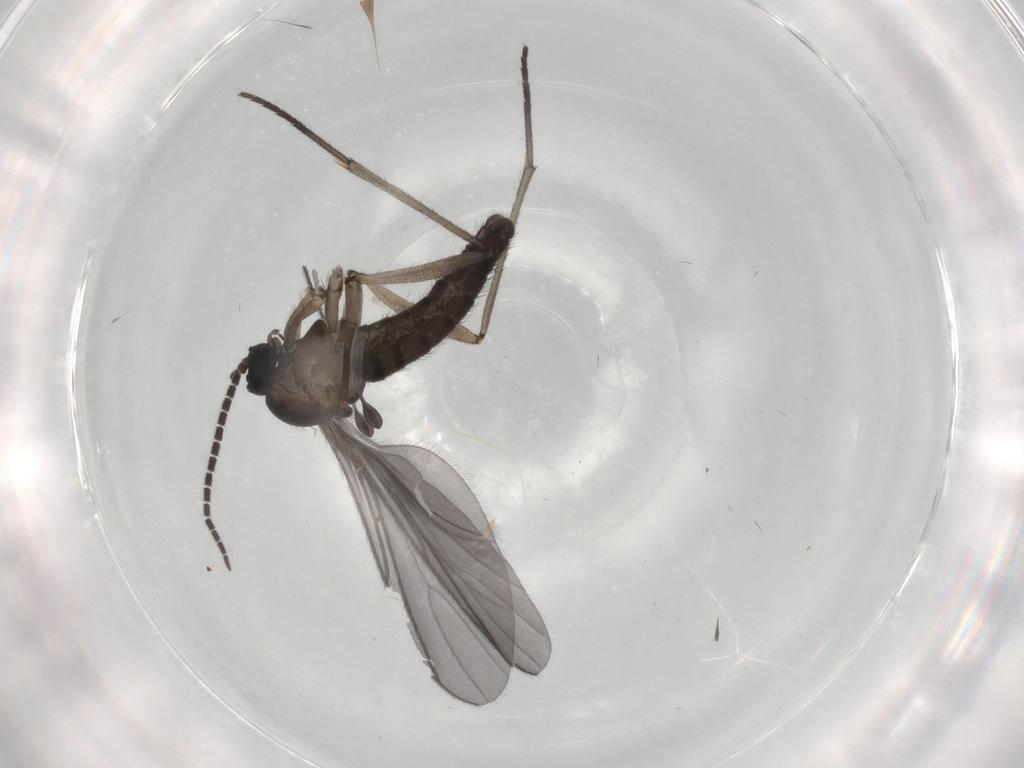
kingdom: Animalia
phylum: Arthropoda
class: Insecta
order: Diptera
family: Sciaridae
